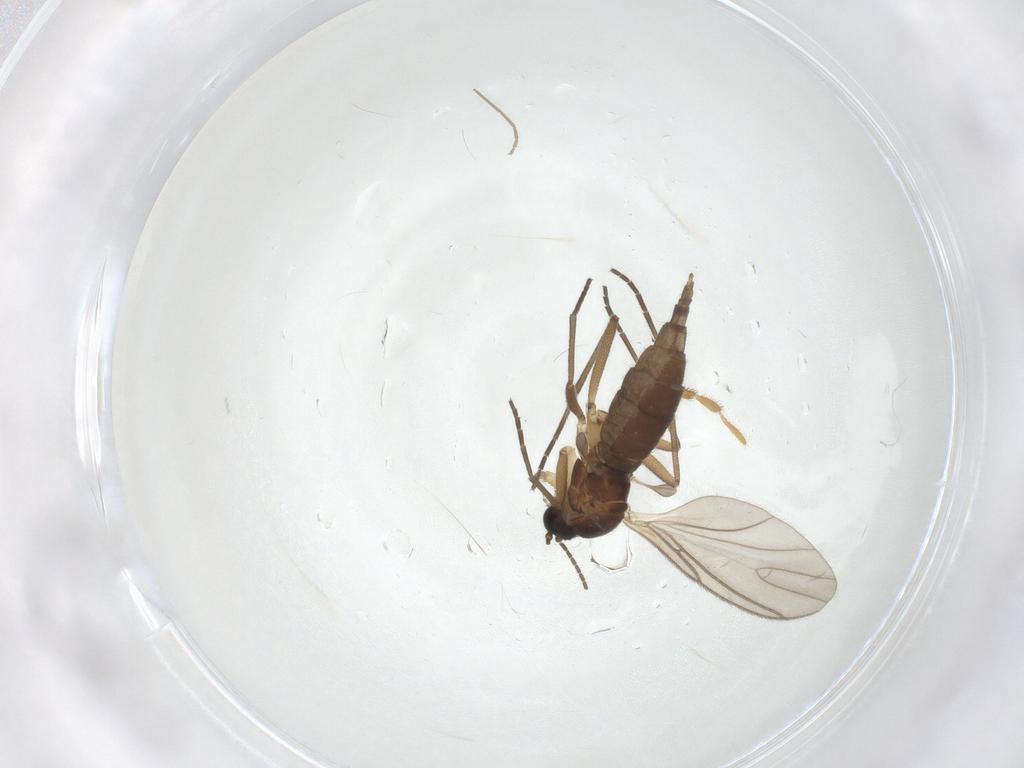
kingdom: Animalia
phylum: Arthropoda
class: Insecta
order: Diptera
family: Sciaridae
